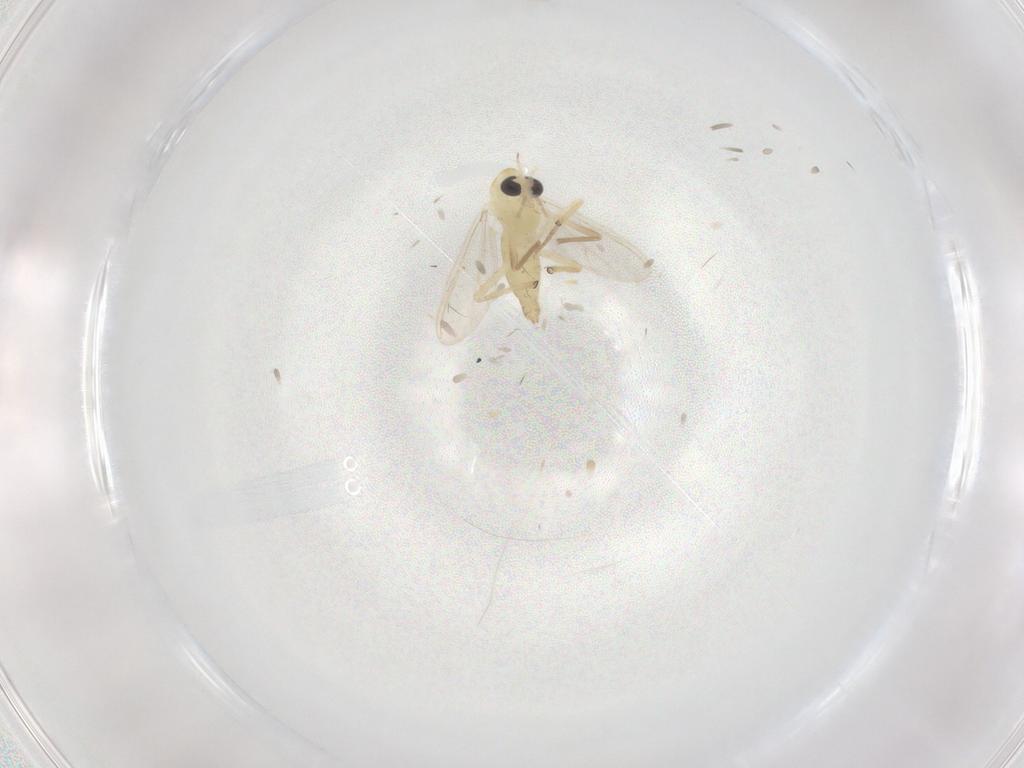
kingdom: Animalia
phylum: Arthropoda
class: Insecta
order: Diptera
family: Chironomidae
